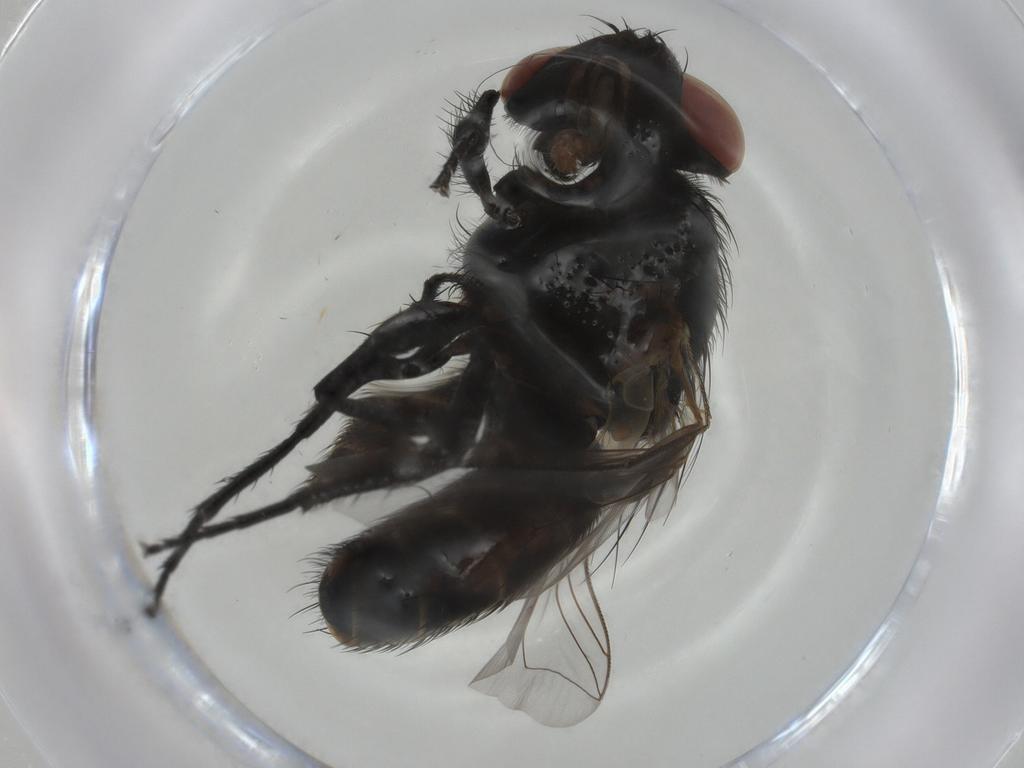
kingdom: Animalia
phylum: Arthropoda
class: Insecta
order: Diptera
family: Sarcophagidae
